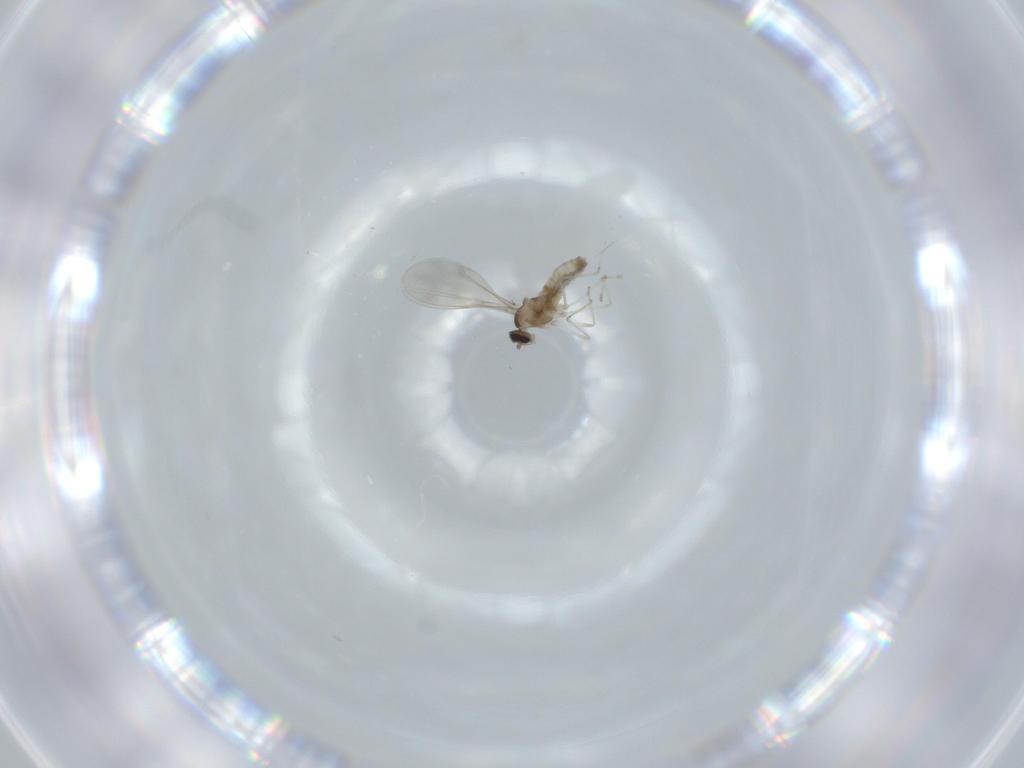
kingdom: Animalia
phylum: Arthropoda
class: Insecta
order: Diptera
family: Cecidomyiidae
